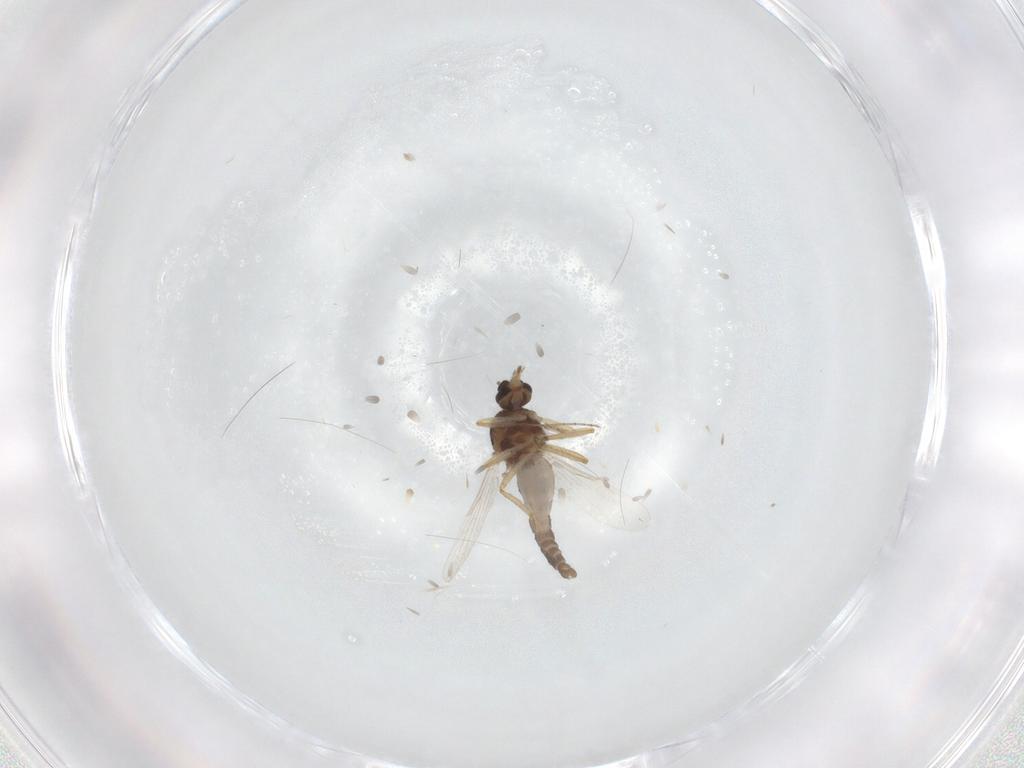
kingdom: Animalia
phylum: Arthropoda
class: Insecta
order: Diptera
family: Ceratopogonidae
